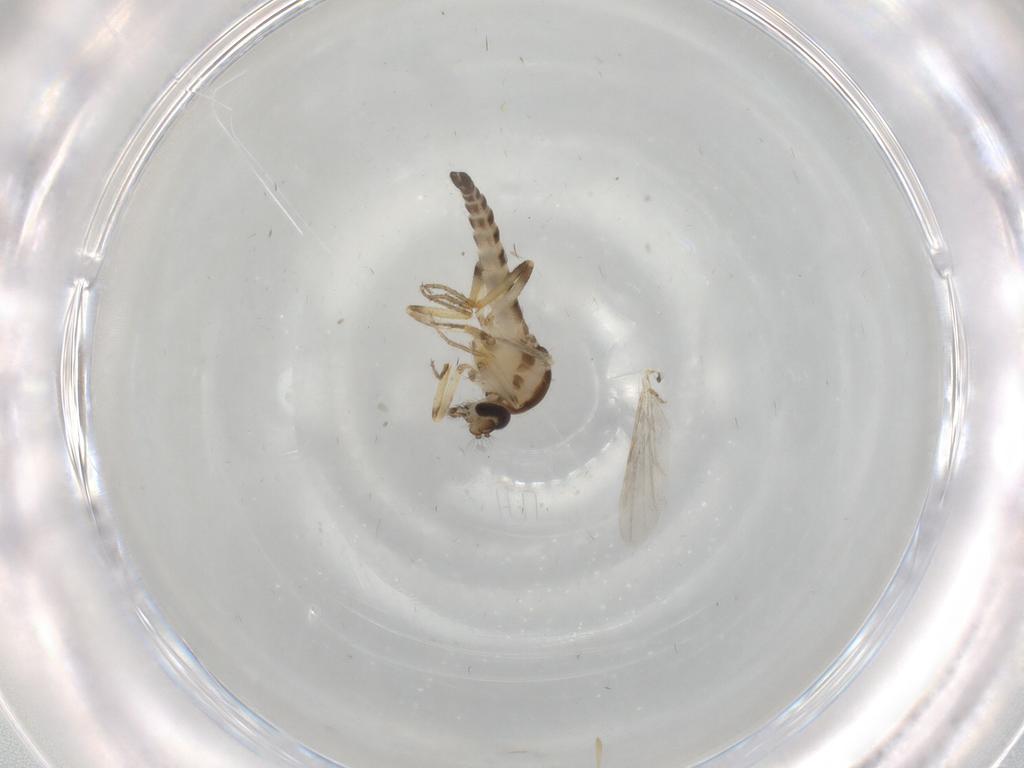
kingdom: Animalia
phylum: Arthropoda
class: Insecta
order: Diptera
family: Ceratopogonidae
